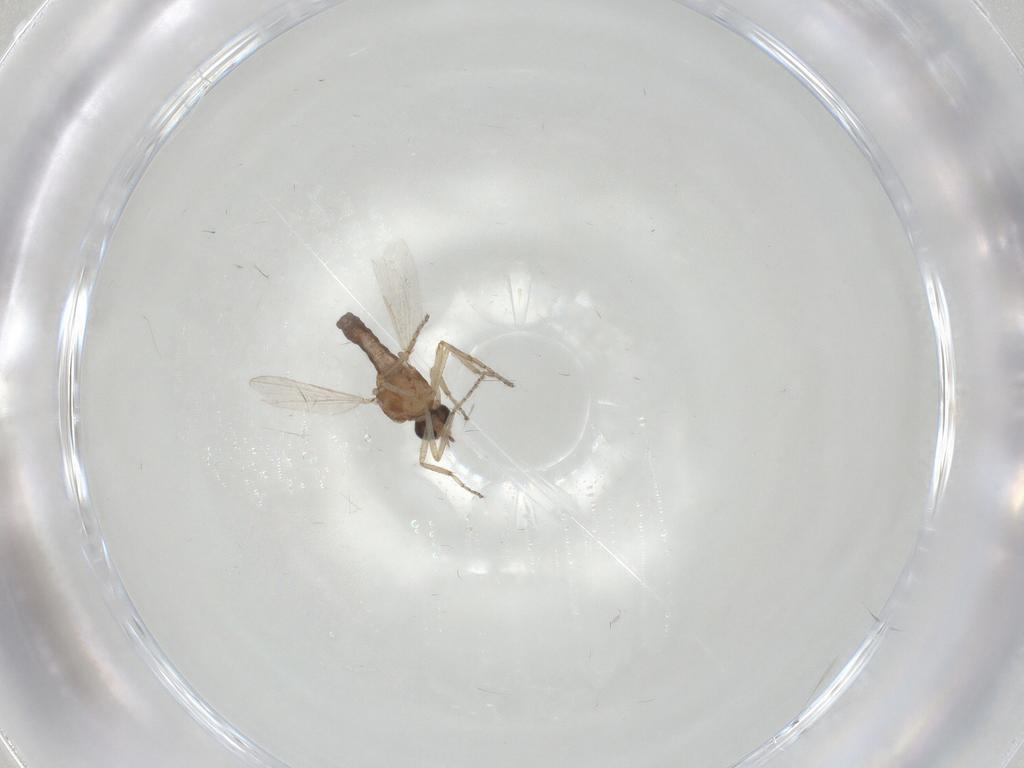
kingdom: Animalia
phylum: Arthropoda
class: Insecta
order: Diptera
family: Ceratopogonidae
